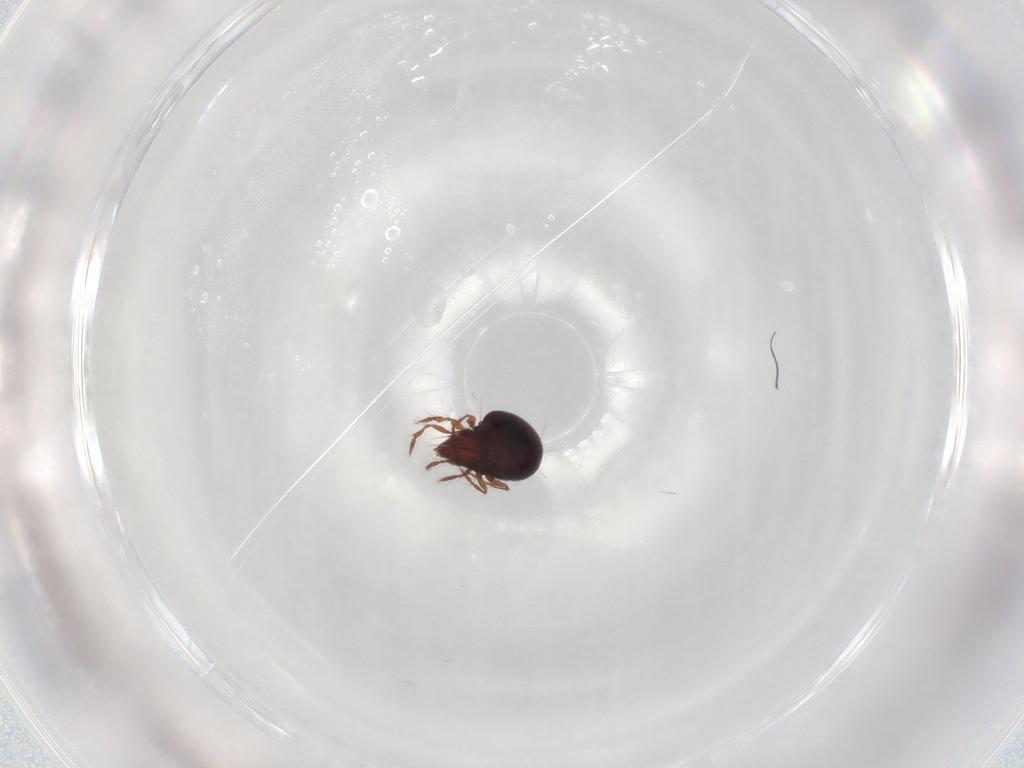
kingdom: Animalia
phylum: Arthropoda
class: Arachnida
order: Sarcoptiformes
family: Ceratoppiidae
